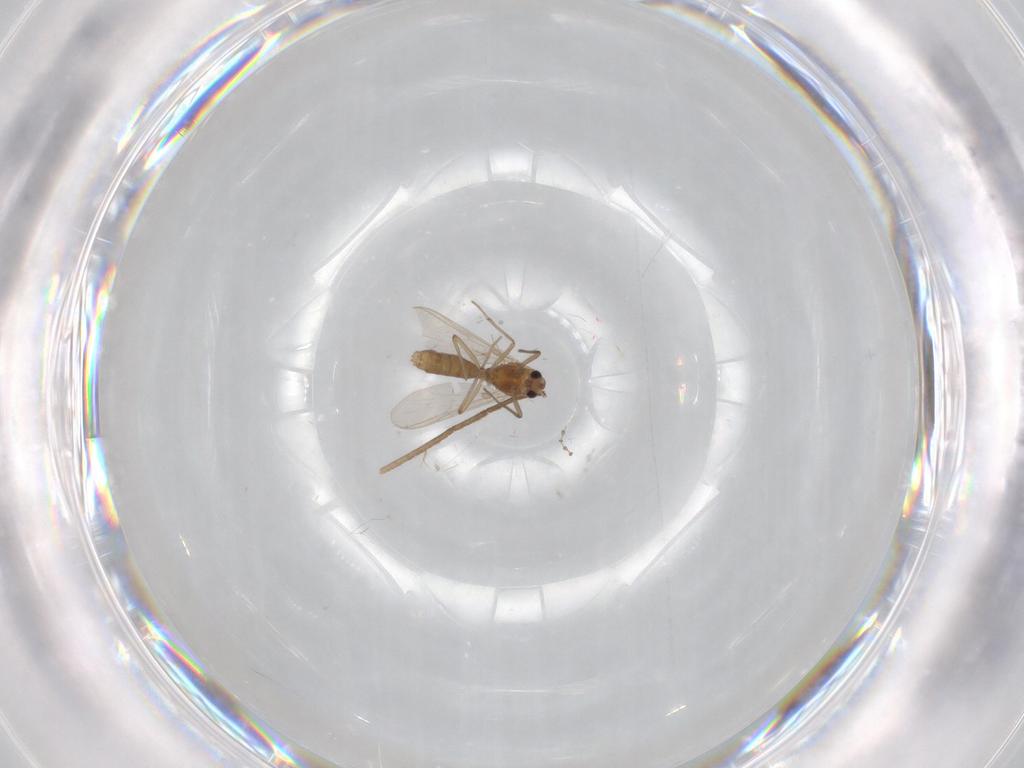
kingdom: Animalia
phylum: Arthropoda
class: Insecta
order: Diptera
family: Chironomidae
